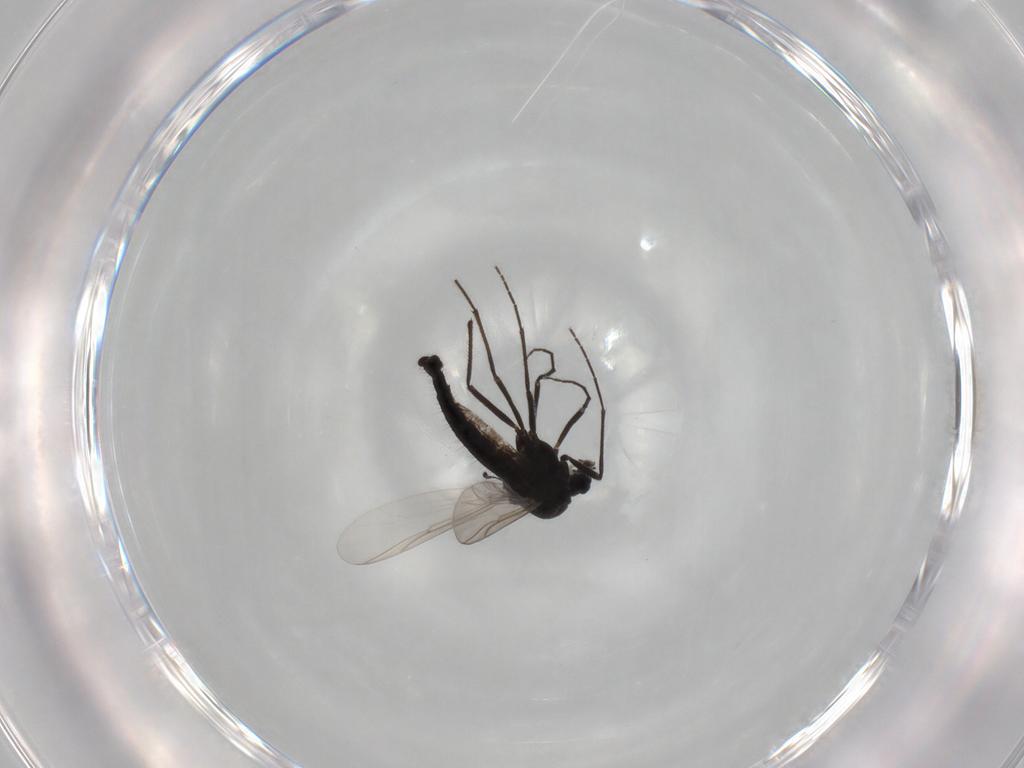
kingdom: Animalia
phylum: Arthropoda
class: Insecta
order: Diptera
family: Chironomidae
